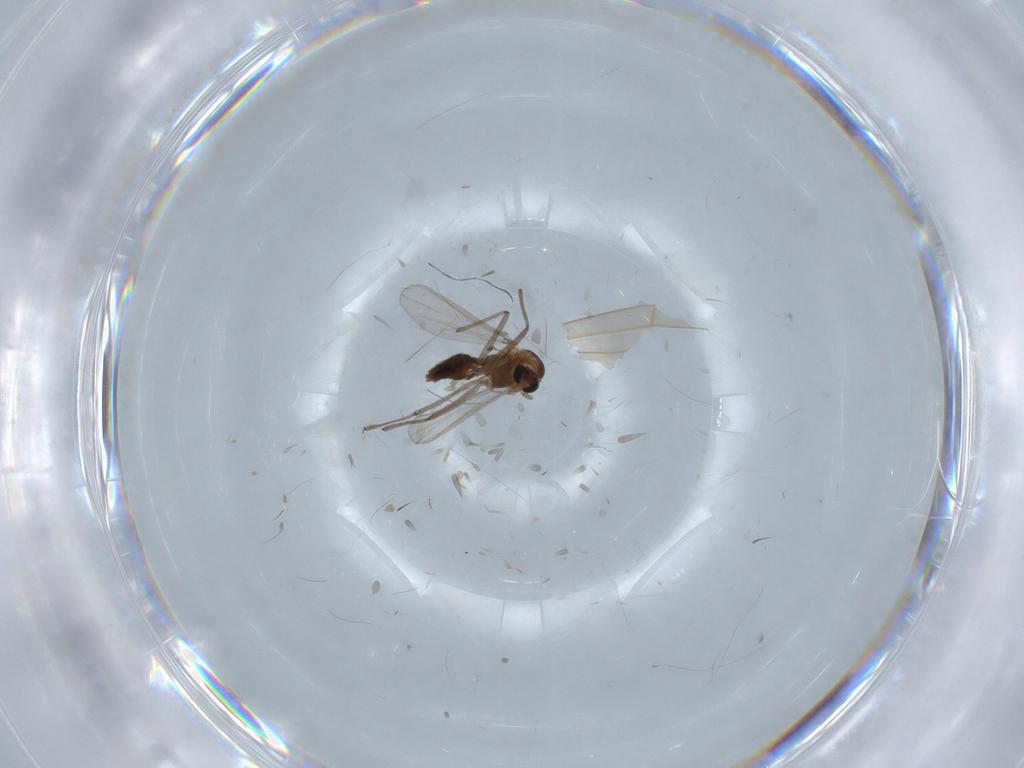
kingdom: Animalia
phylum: Arthropoda
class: Insecta
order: Diptera
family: Chironomidae
